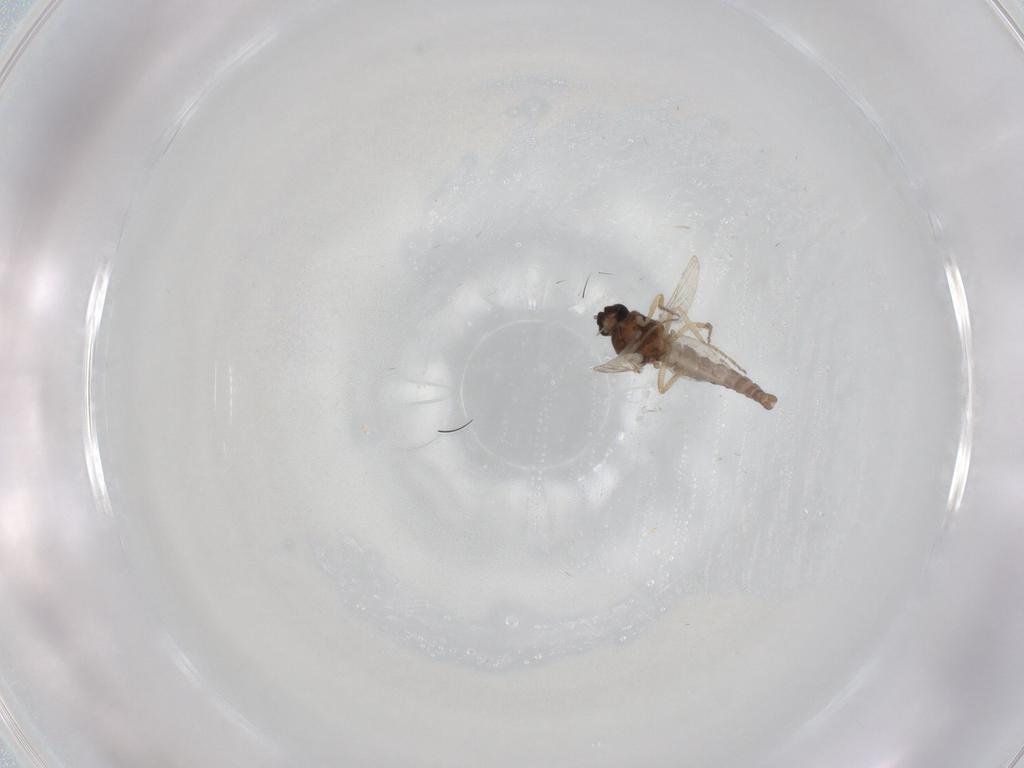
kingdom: Animalia
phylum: Arthropoda
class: Insecta
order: Diptera
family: Ceratopogonidae
